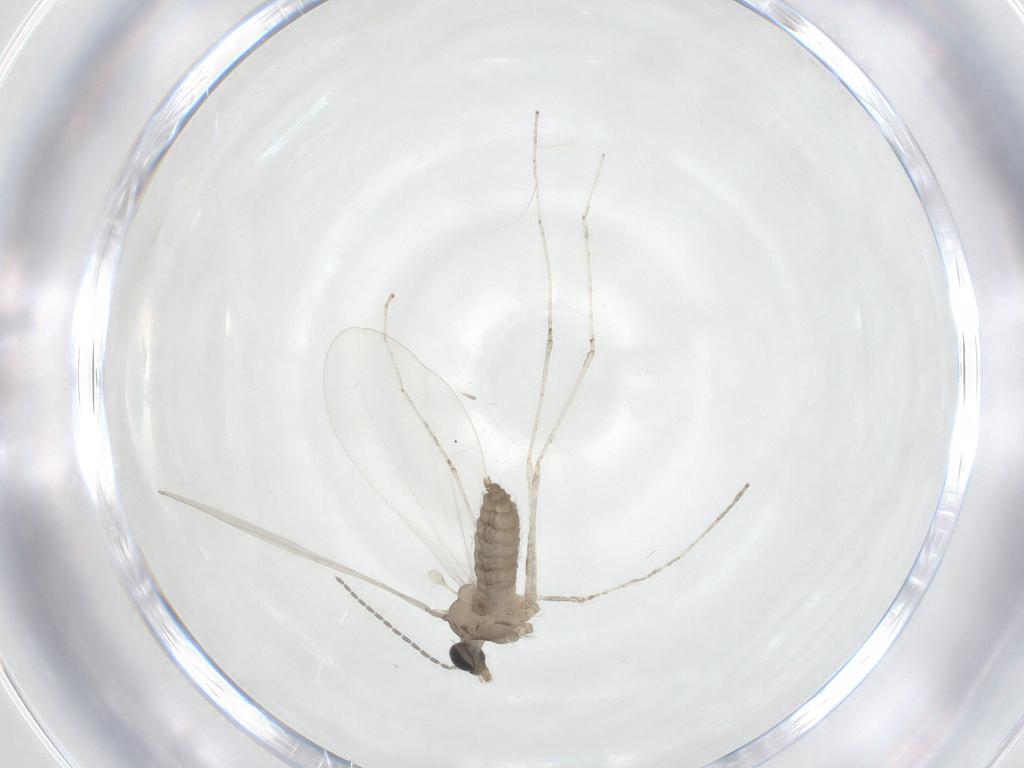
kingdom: Animalia
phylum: Arthropoda
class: Insecta
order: Diptera
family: Cecidomyiidae
